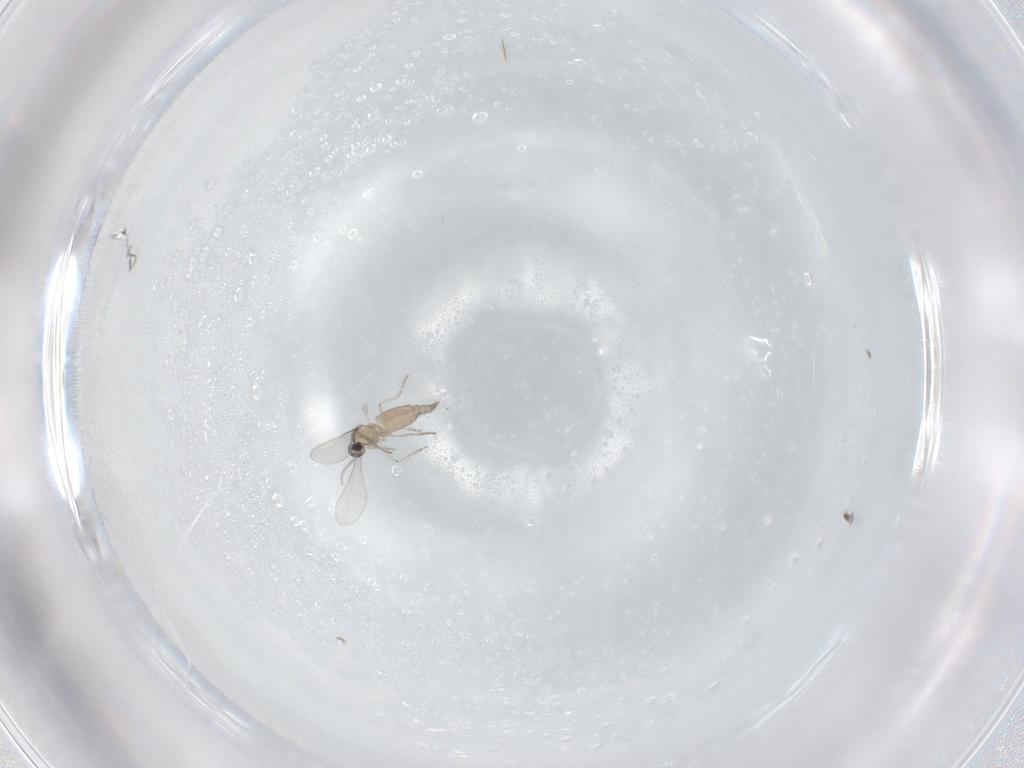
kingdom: Animalia
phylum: Arthropoda
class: Insecta
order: Diptera
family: Cecidomyiidae
